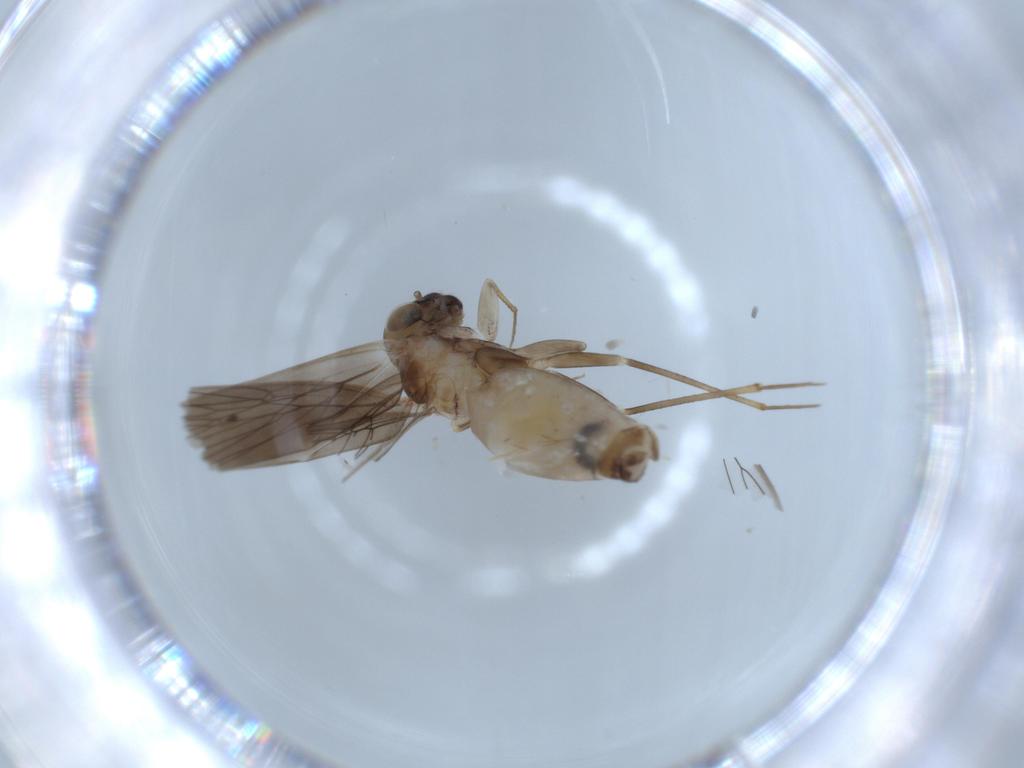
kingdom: Animalia
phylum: Arthropoda
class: Insecta
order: Psocodea
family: Lepidopsocidae
